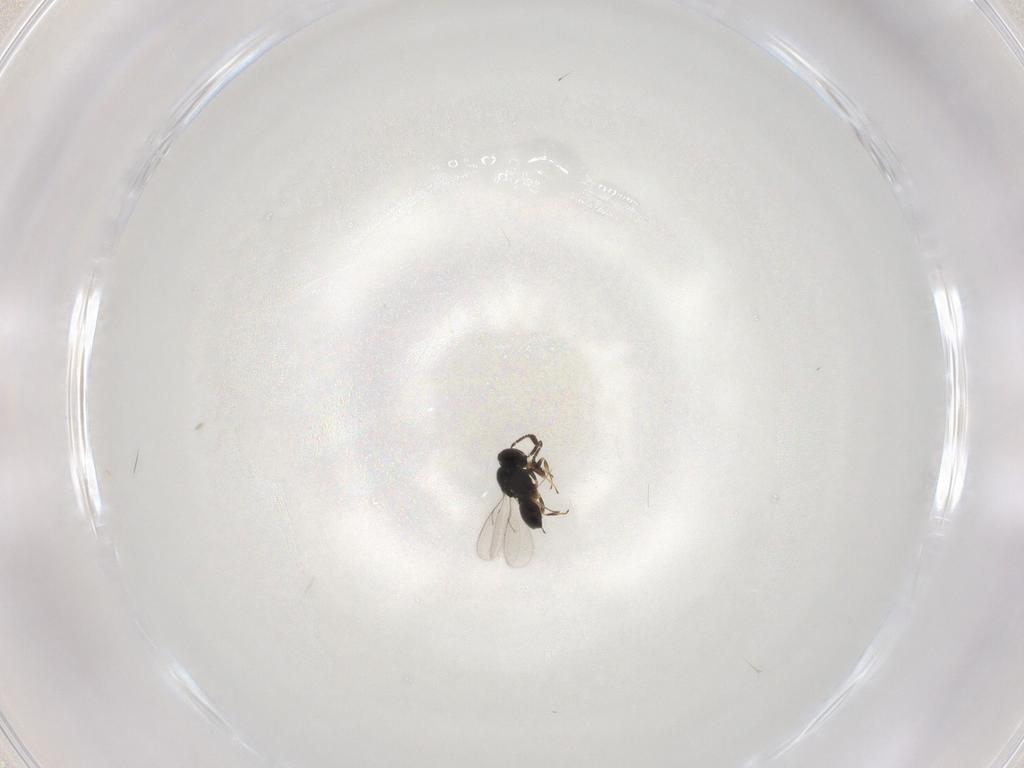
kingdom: Animalia
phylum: Arthropoda
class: Insecta
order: Hymenoptera
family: Scelionidae
